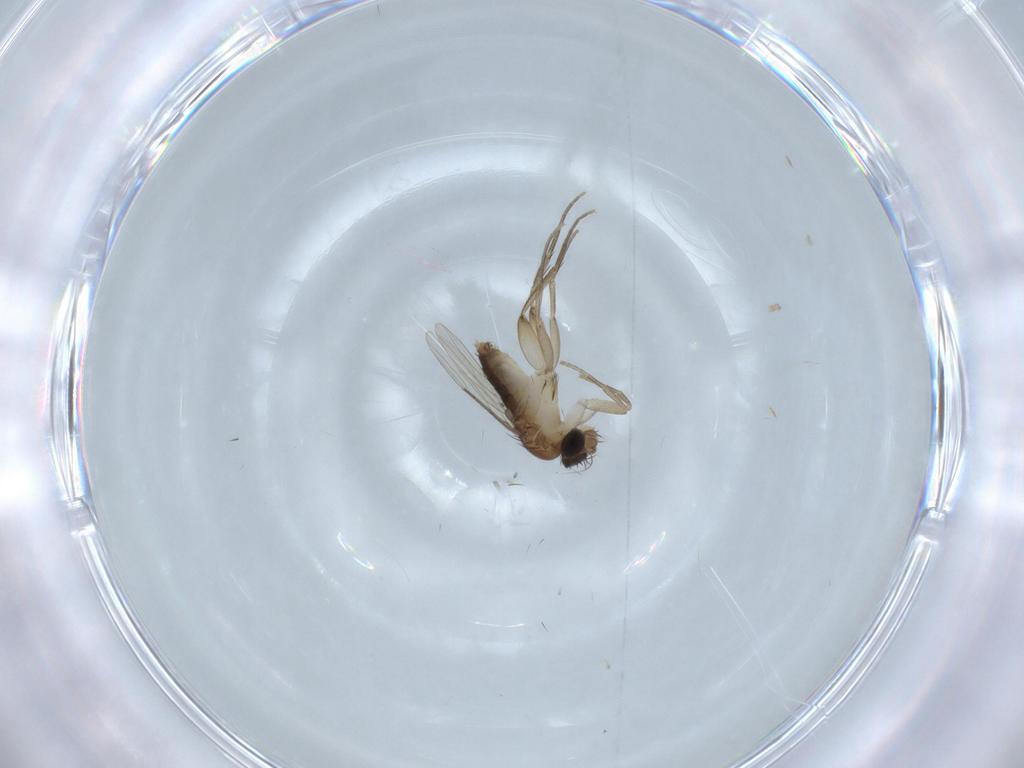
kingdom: Animalia
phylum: Arthropoda
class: Insecta
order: Diptera
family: Phoridae
